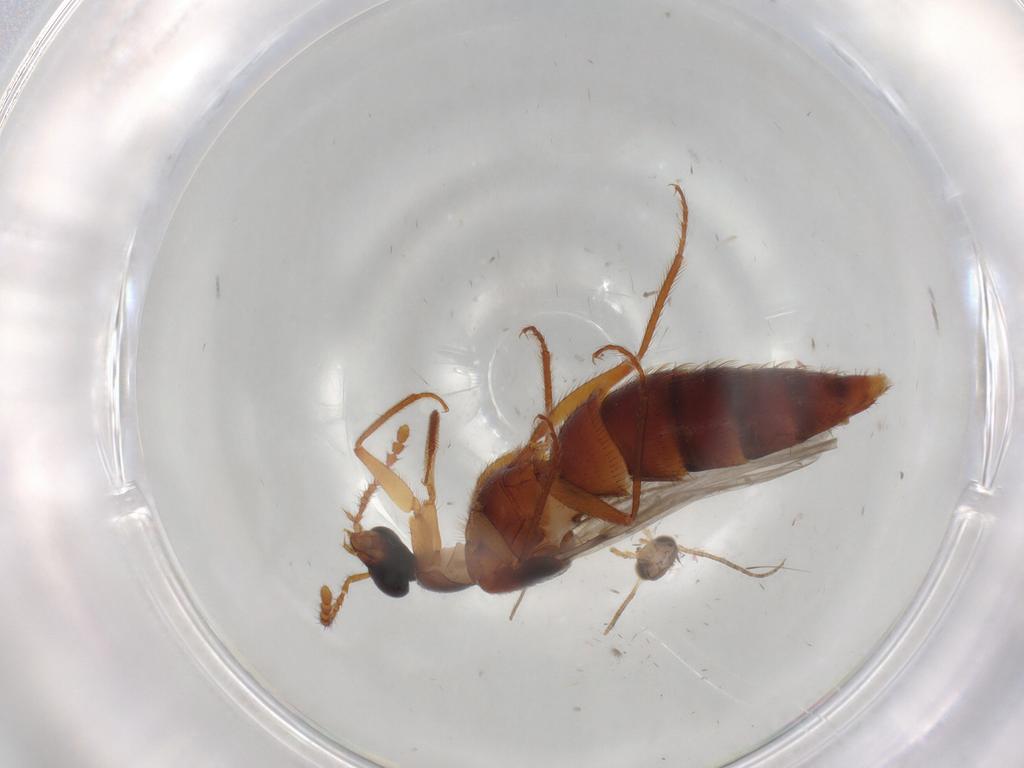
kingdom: Animalia
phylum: Arthropoda
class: Insecta
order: Coleoptera
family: Staphylinidae
